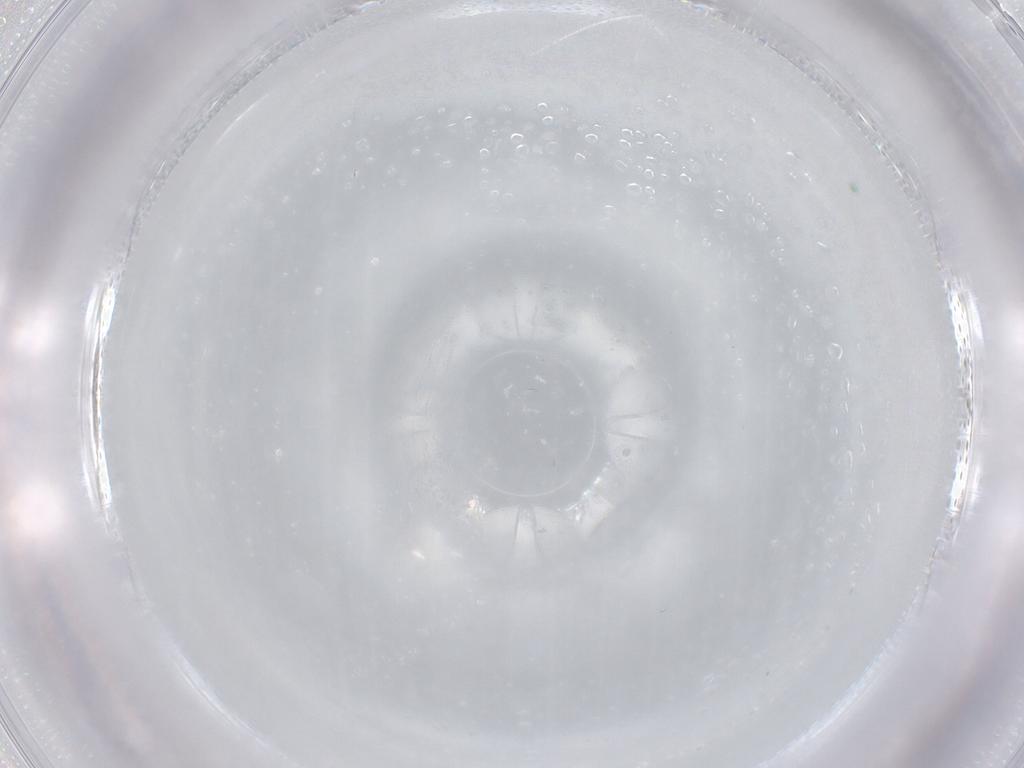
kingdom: Animalia
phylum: Arthropoda
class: Insecta
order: Diptera
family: Cecidomyiidae
